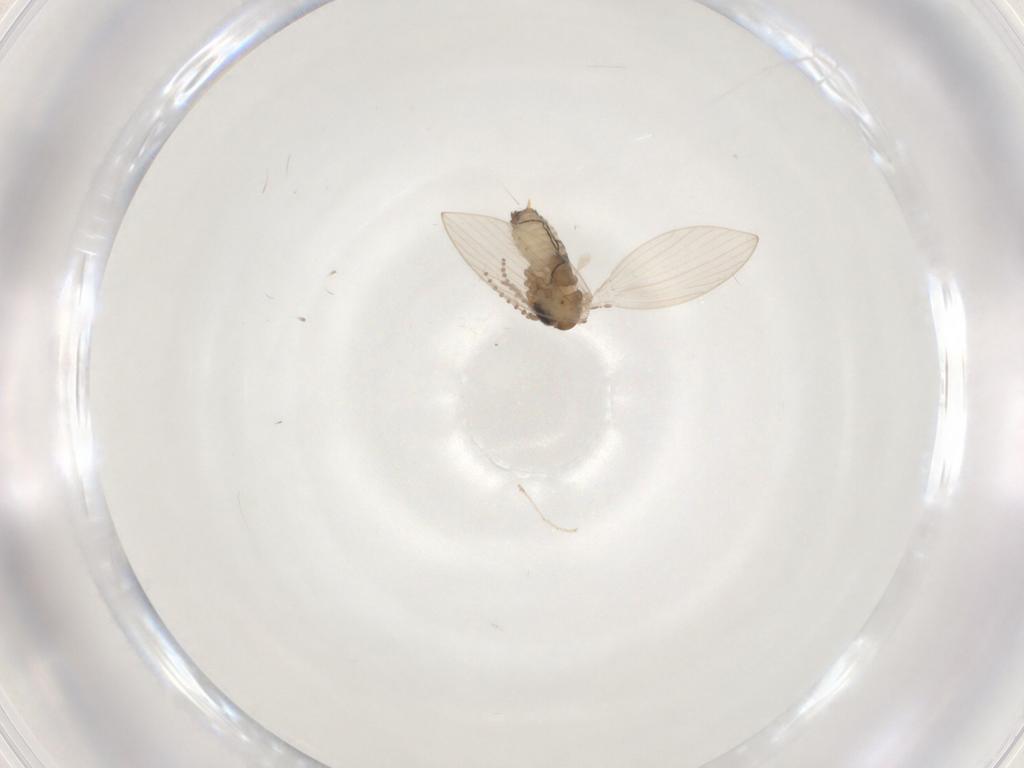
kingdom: Animalia
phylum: Arthropoda
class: Insecta
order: Diptera
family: Psychodidae
